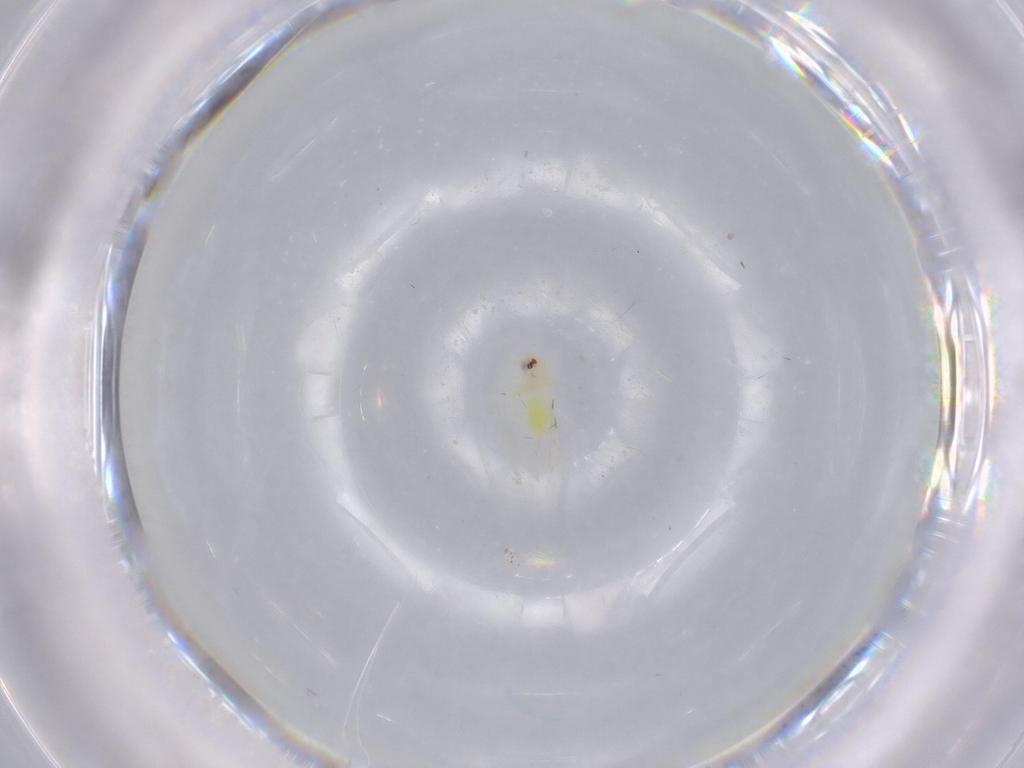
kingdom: Animalia
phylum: Arthropoda
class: Insecta
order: Hemiptera
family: Aleyrodidae
